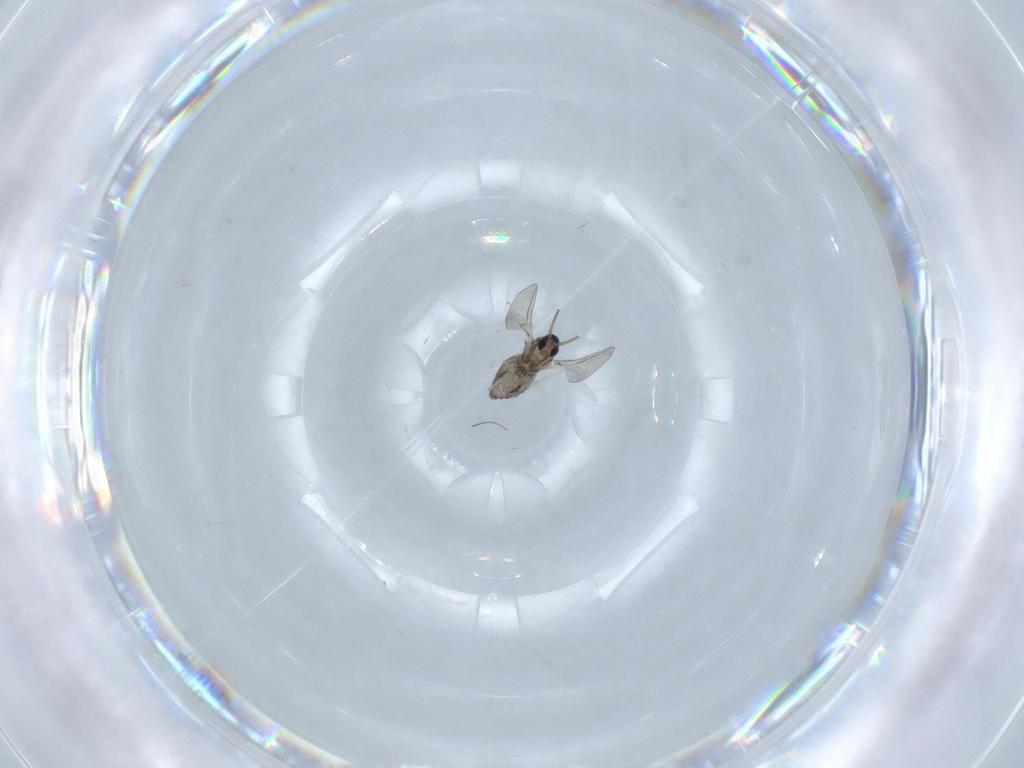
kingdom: Animalia
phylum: Arthropoda
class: Insecta
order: Diptera
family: Cecidomyiidae
